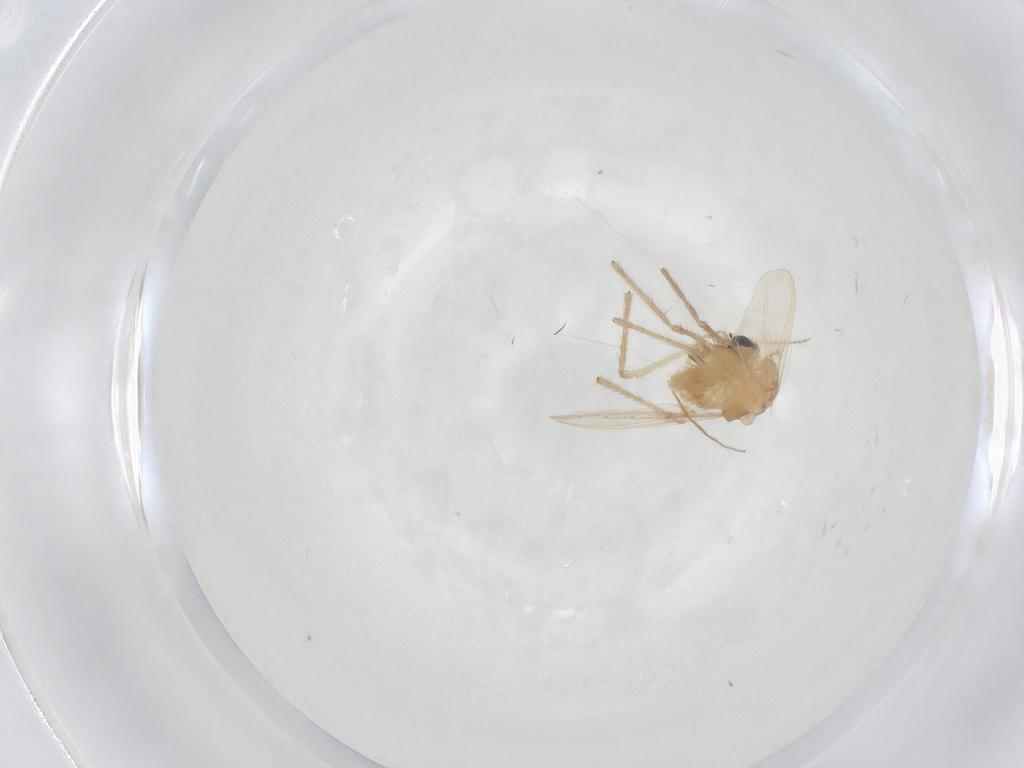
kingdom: Animalia
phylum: Arthropoda
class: Insecta
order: Diptera
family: Chironomidae
